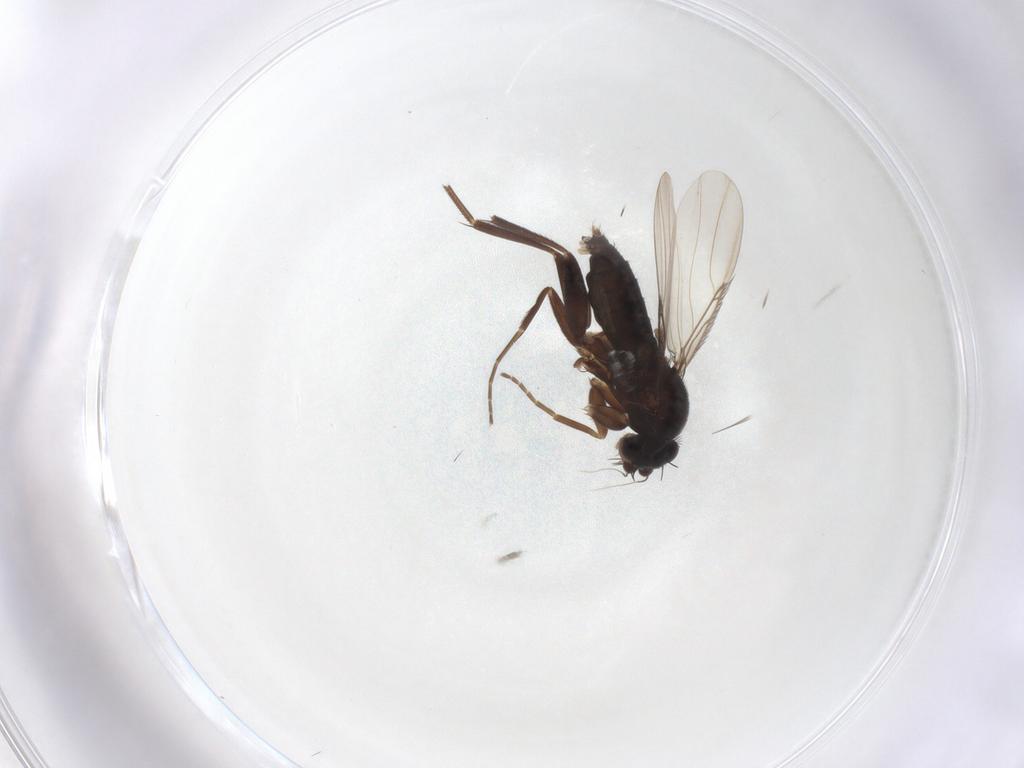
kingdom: Animalia
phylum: Arthropoda
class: Insecta
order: Diptera
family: Phoridae
